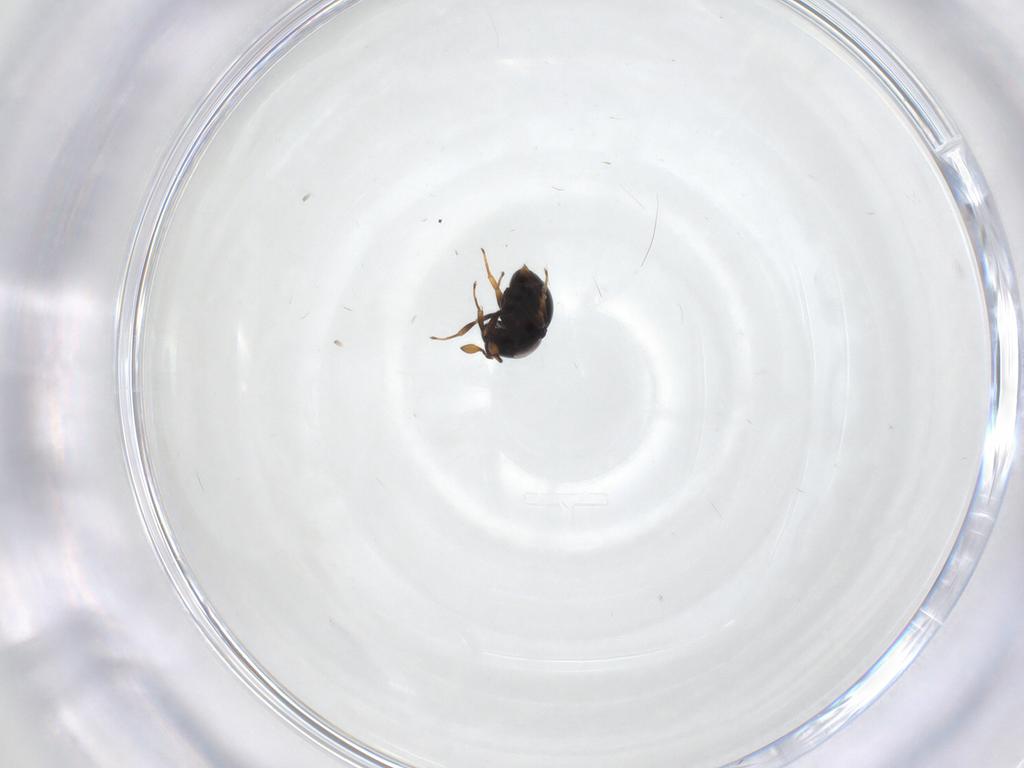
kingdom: Animalia
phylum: Arthropoda
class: Insecta
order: Hymenoptera
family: Scelionidae
